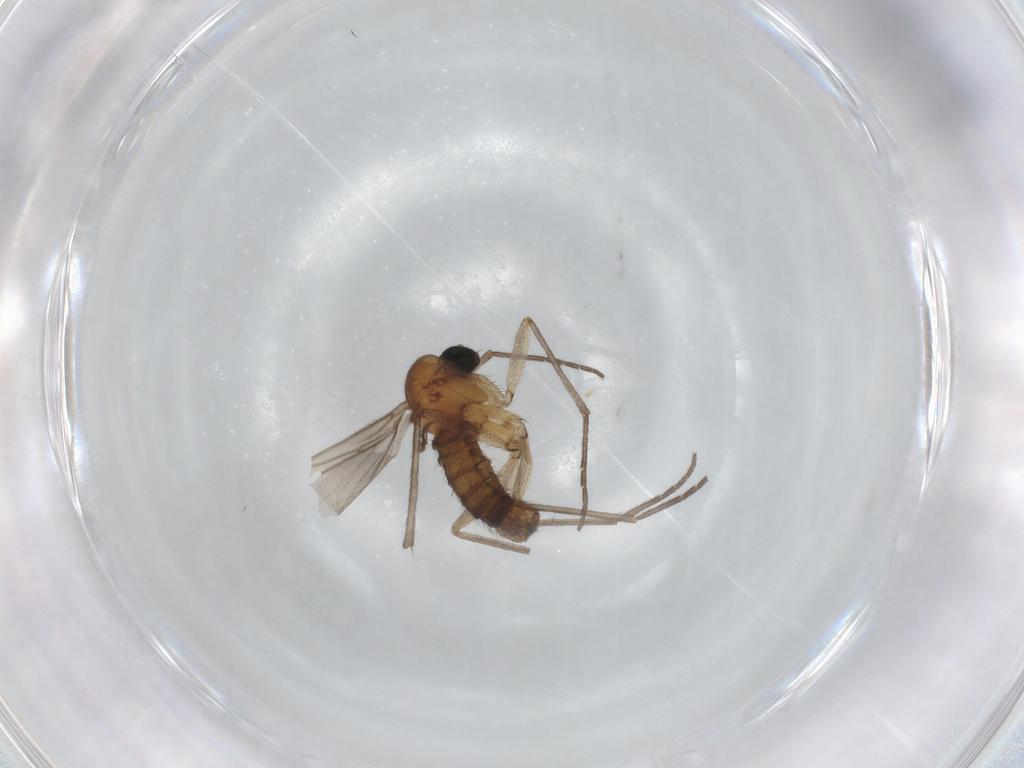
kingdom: Animalia
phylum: Arthropoda
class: Insecta
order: Diptera
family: Sciaridae
